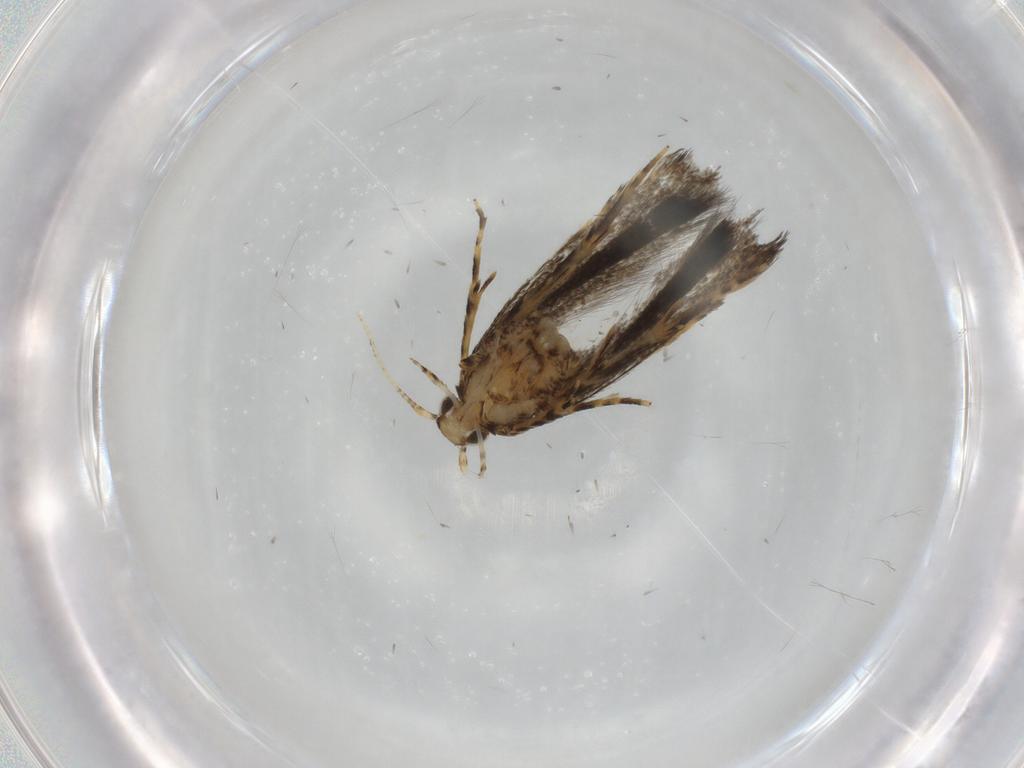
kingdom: Animalia
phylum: Arthropoda
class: Insecta
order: Lepidoptera
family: Oecophoridae
